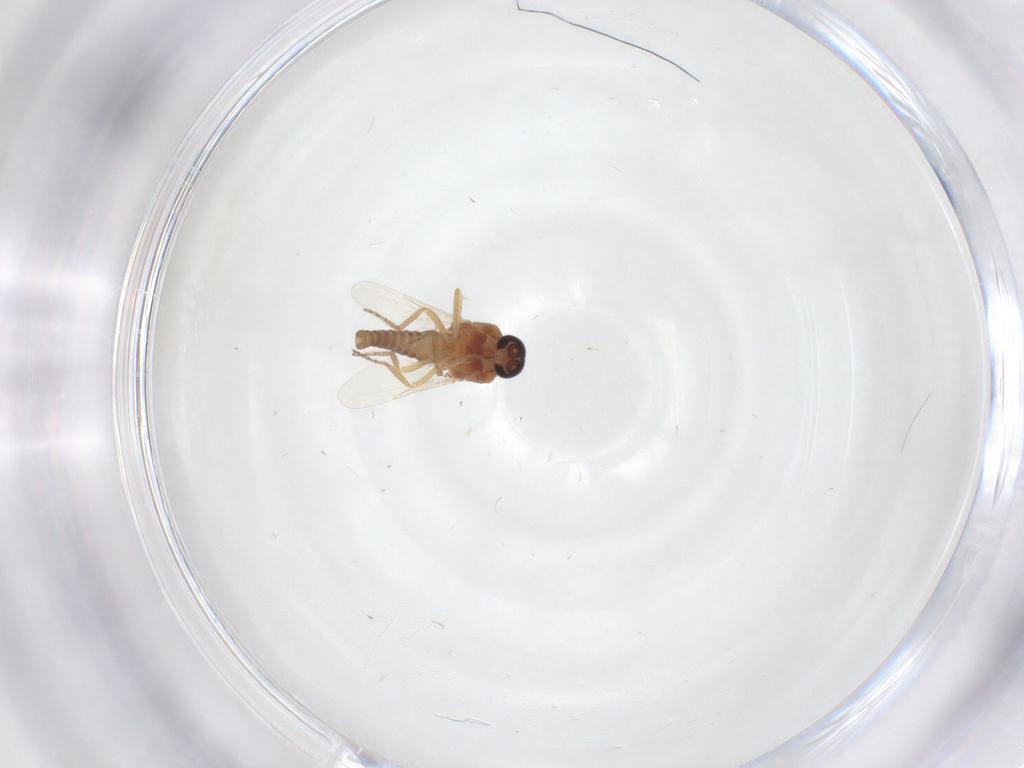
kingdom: Animalia
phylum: Arthropoda
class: Insecta
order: Diptera
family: Ceratopogonidae
